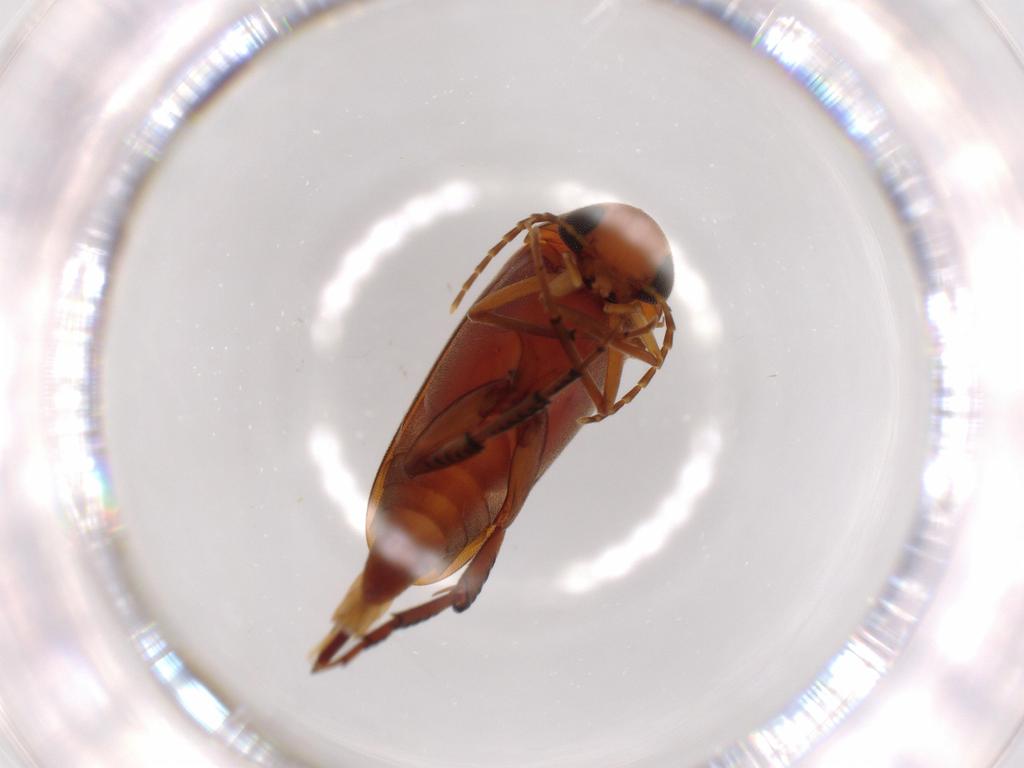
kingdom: Animalia
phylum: Arthropoda
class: Insecta
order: Coleoptera
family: Mordellidae
